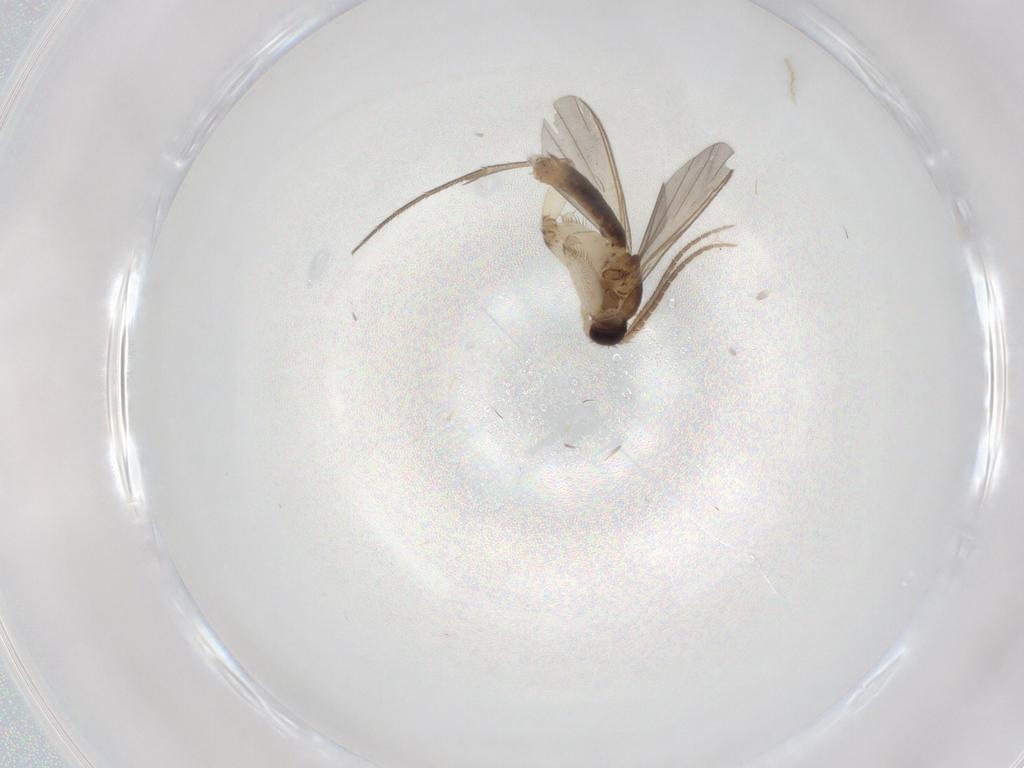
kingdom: Animalia
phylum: Arthropoda
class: Insecta
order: Diptera
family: Mycetophilidae
